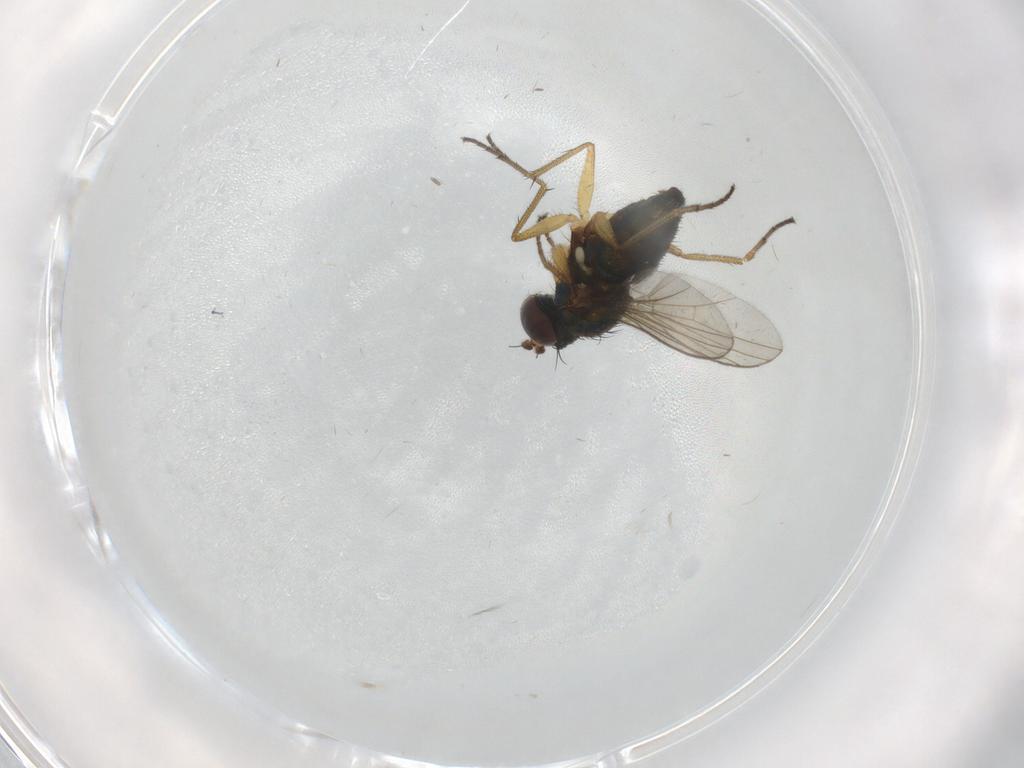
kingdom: Animalia
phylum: Arthropoda
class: Insecta
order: Diptera
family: Dolichopodidae
